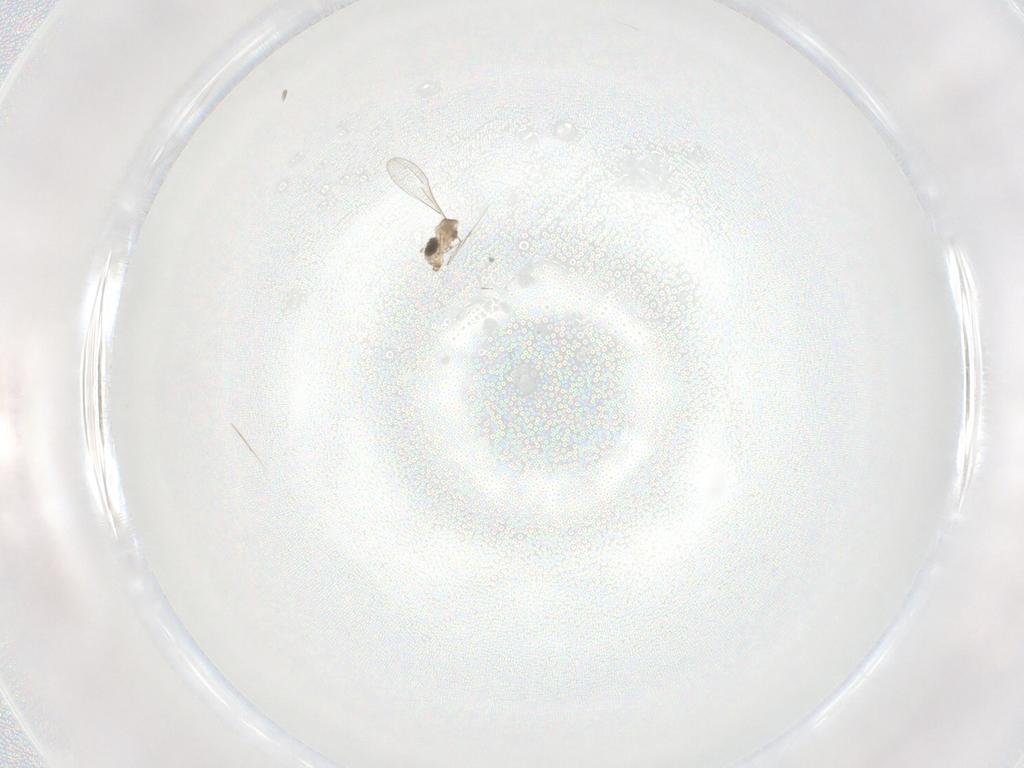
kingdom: Animalia
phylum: Arthropoda
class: Insecta
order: Diptera
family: Cecidomyiidae
